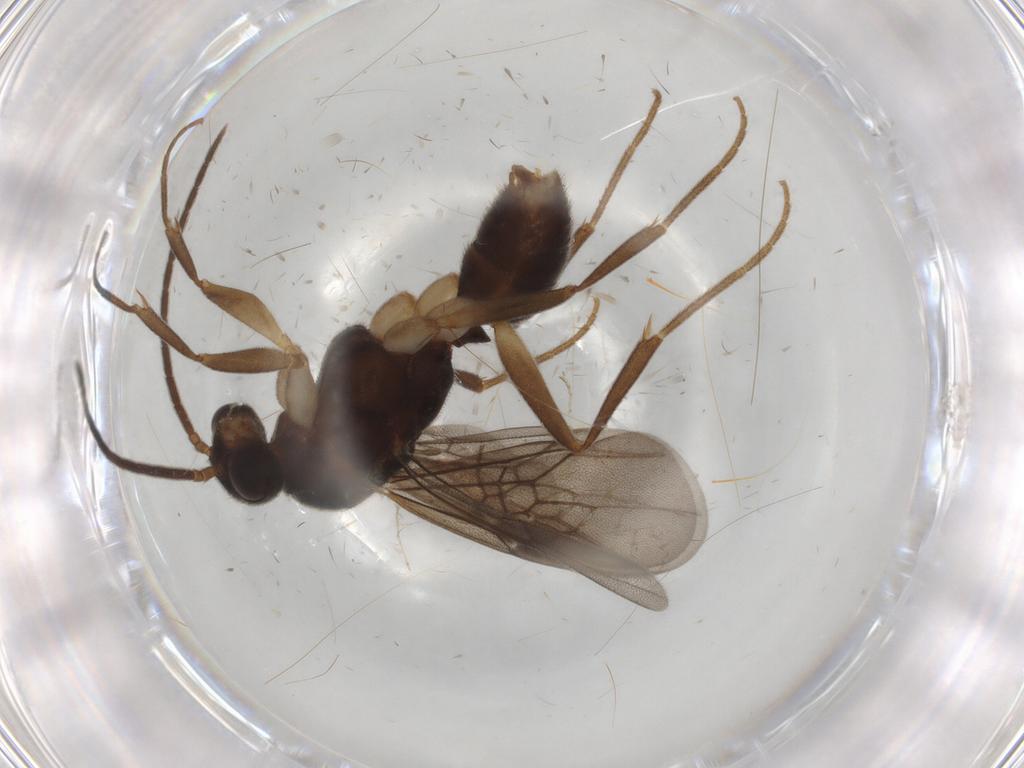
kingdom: Animalia
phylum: Arthropoda
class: Insecta
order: Hymenoptera
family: Formicidae
